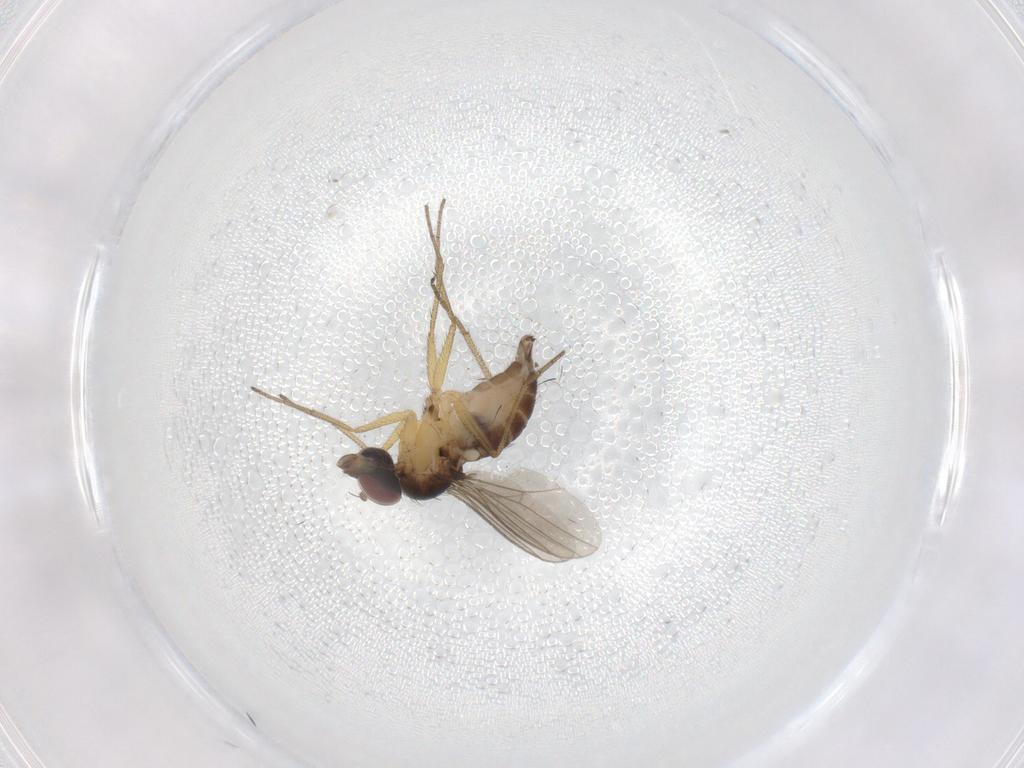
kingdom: Animalia
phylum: Arthropoda
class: Insecta
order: Diptera
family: Dolichopodidae
